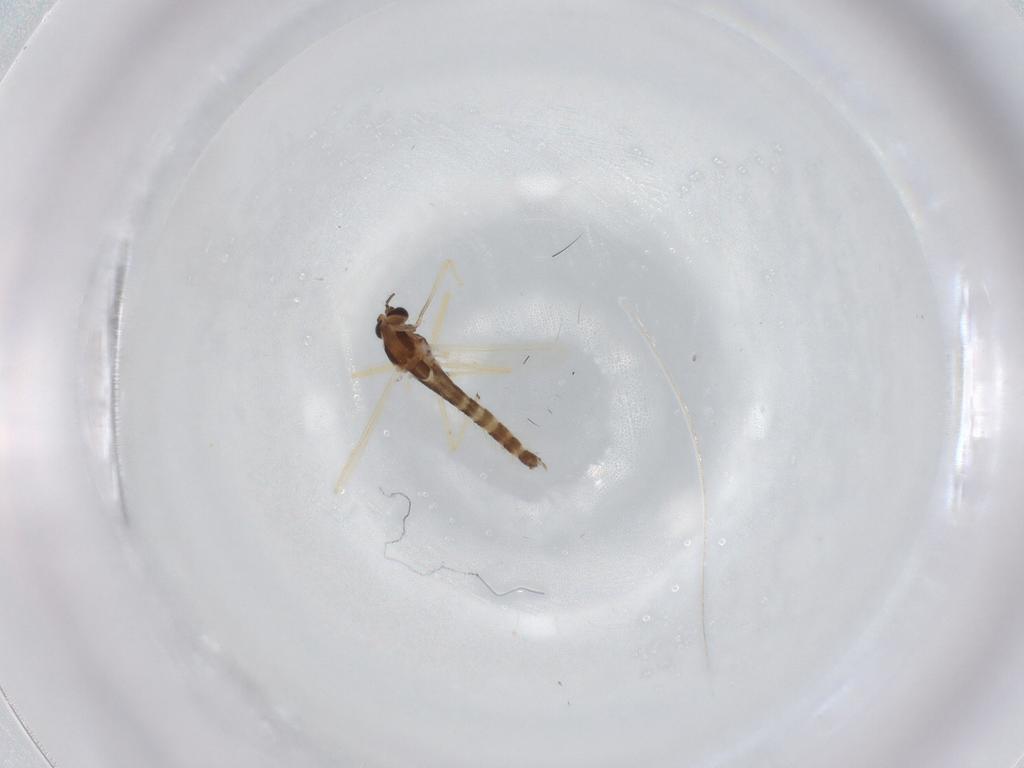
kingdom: Animalia
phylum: Arthropoda
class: Insecta
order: Diptera
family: Chironomidae
